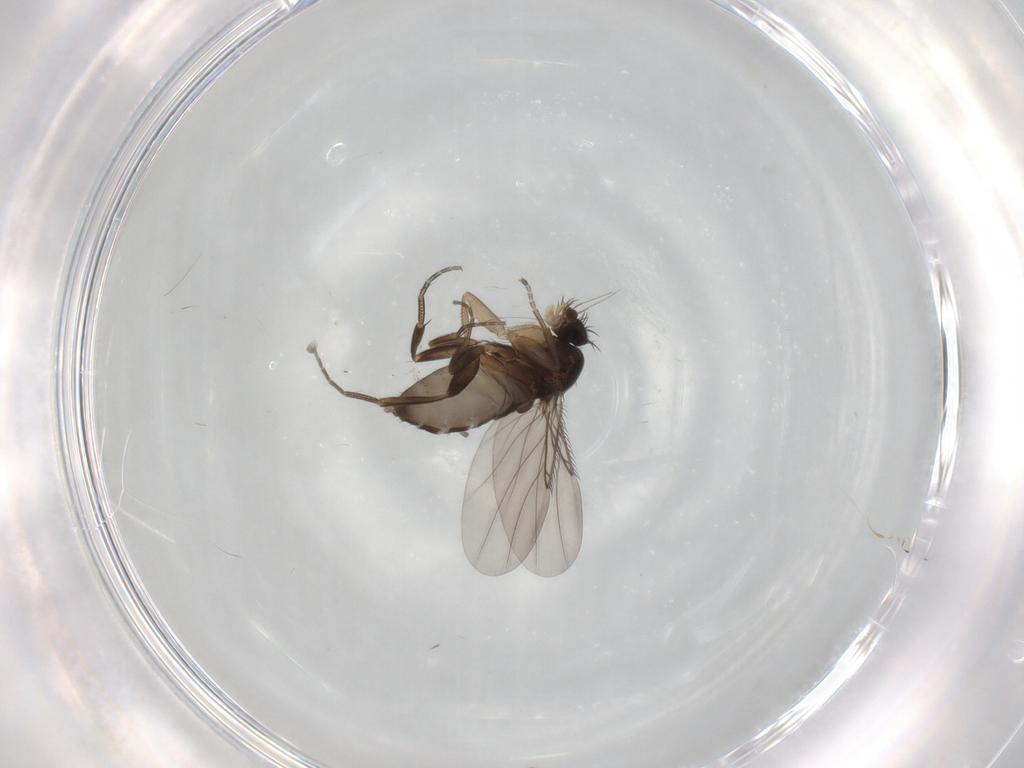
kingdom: Animalia
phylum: Arthropoda
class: Insecta
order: Diptera
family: Phoridae
